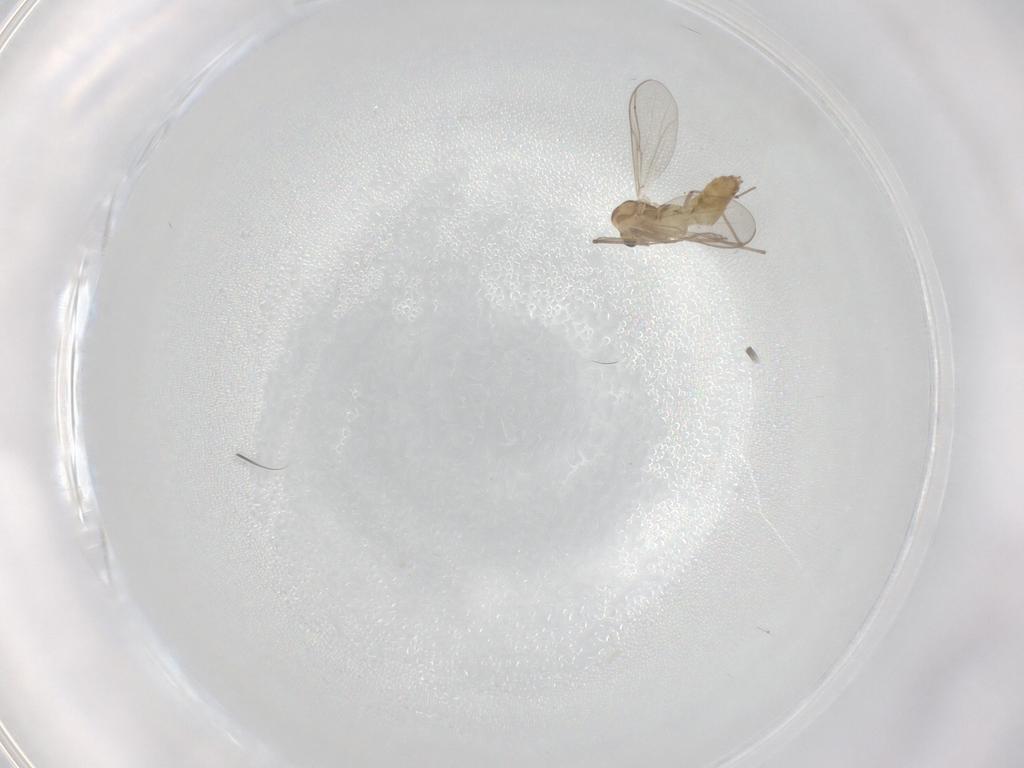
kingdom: Animalia
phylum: Arthropoda
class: Insecta
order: Diptera
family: Chironomidae
